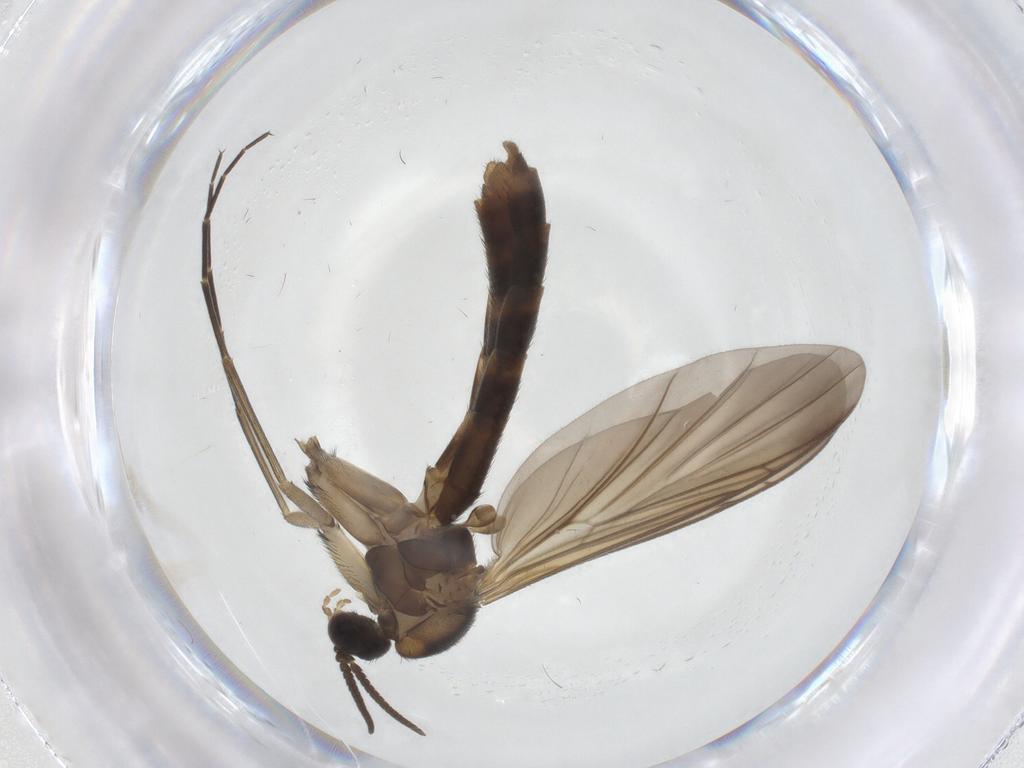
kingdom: Animalia
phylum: Arthropoda
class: Insecta
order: Diptera
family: Keroplatidae
